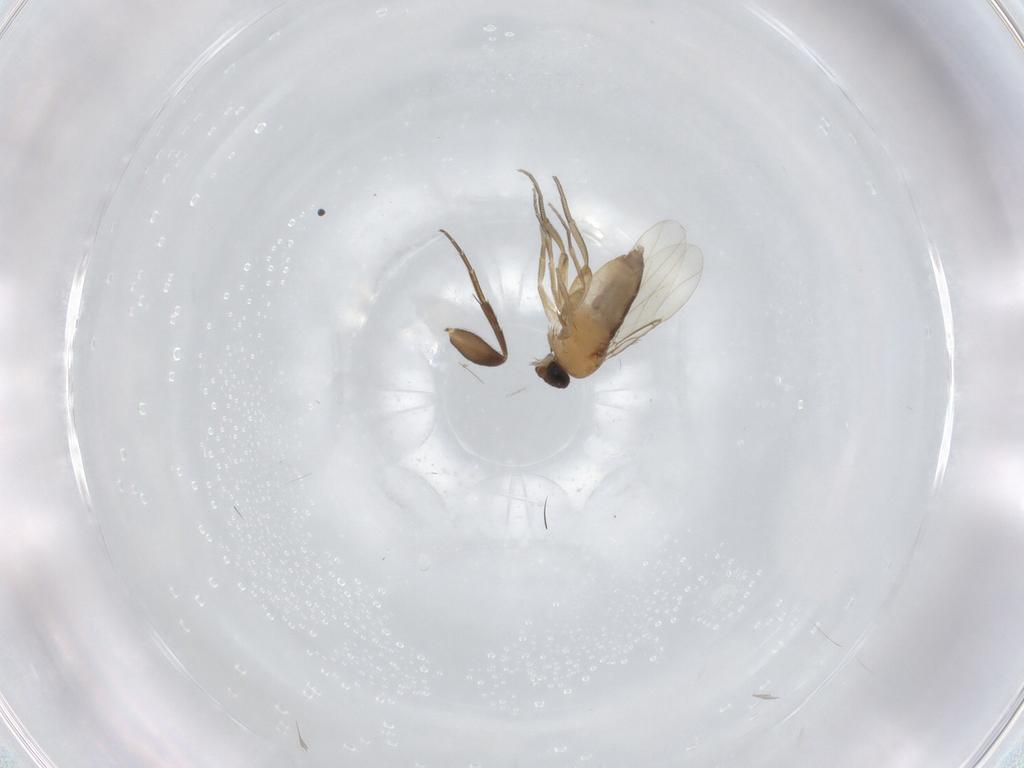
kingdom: Animalia
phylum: Arthropoda
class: Insecta
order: Diptera
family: Phoridae
